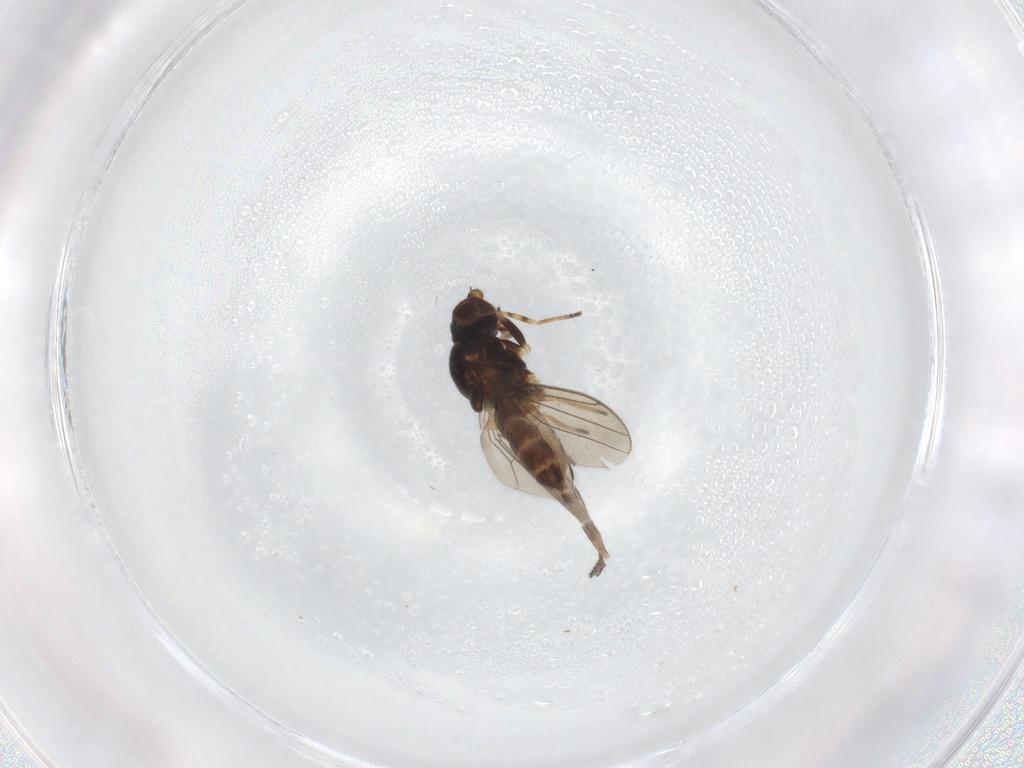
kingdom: Animalia
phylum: Arthropoda
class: Insecta
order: Diptera
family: Chloropidae
